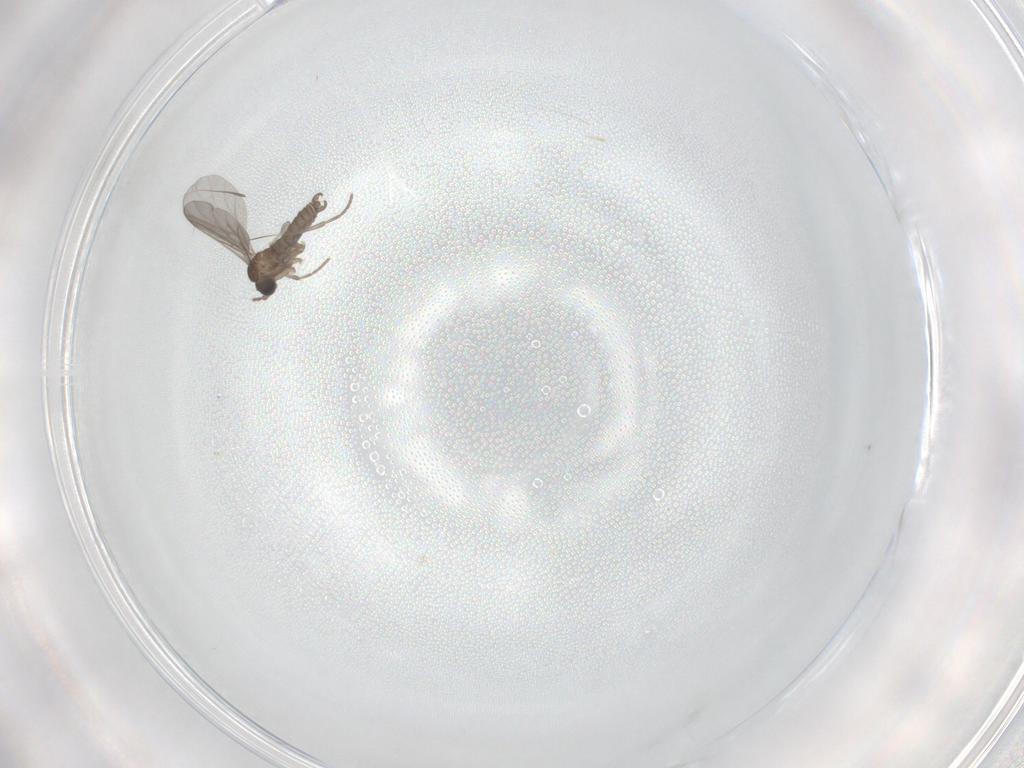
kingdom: Animalia
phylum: Arthropoda
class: Insecta
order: Diptera
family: Sciaridae
